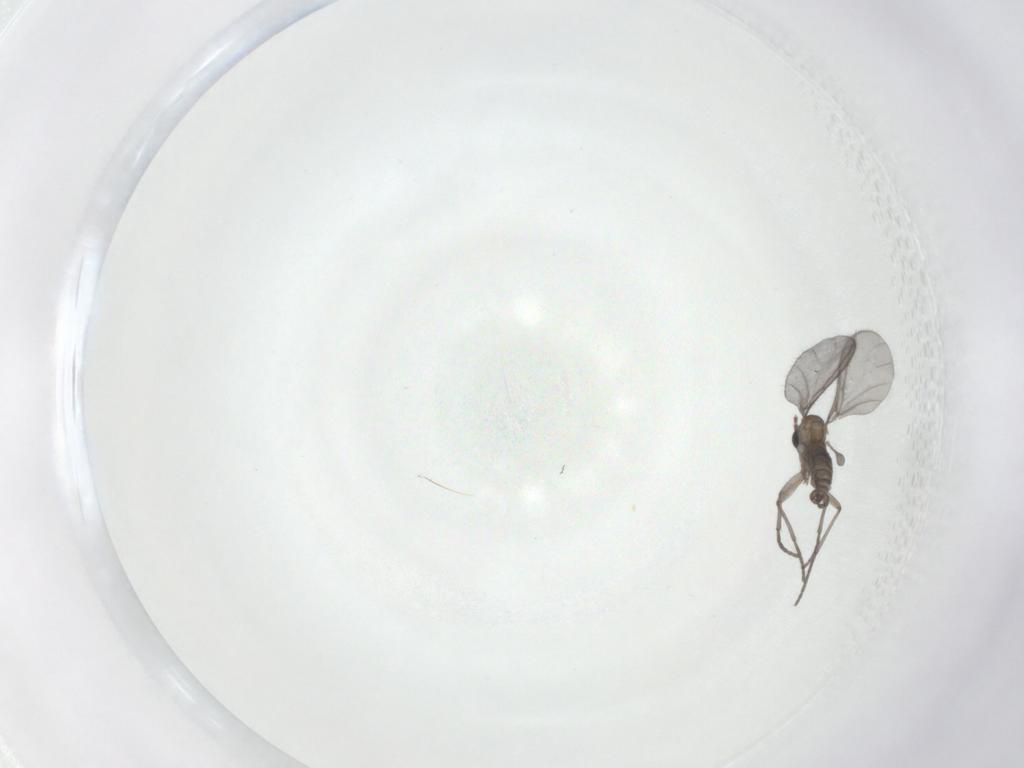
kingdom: Animalia
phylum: Arthropoda
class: Insecta
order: Diptera
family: Sciaridae
